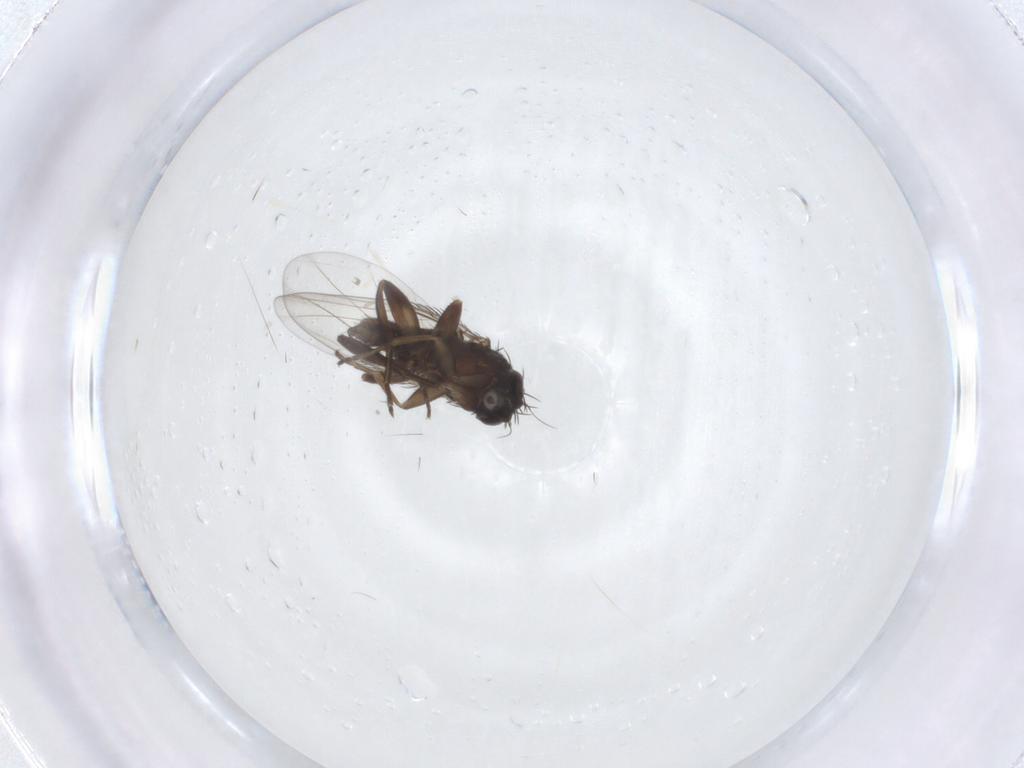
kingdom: Animalia
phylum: Arthropoda
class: Insecta
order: Diptera
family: Phoridae
